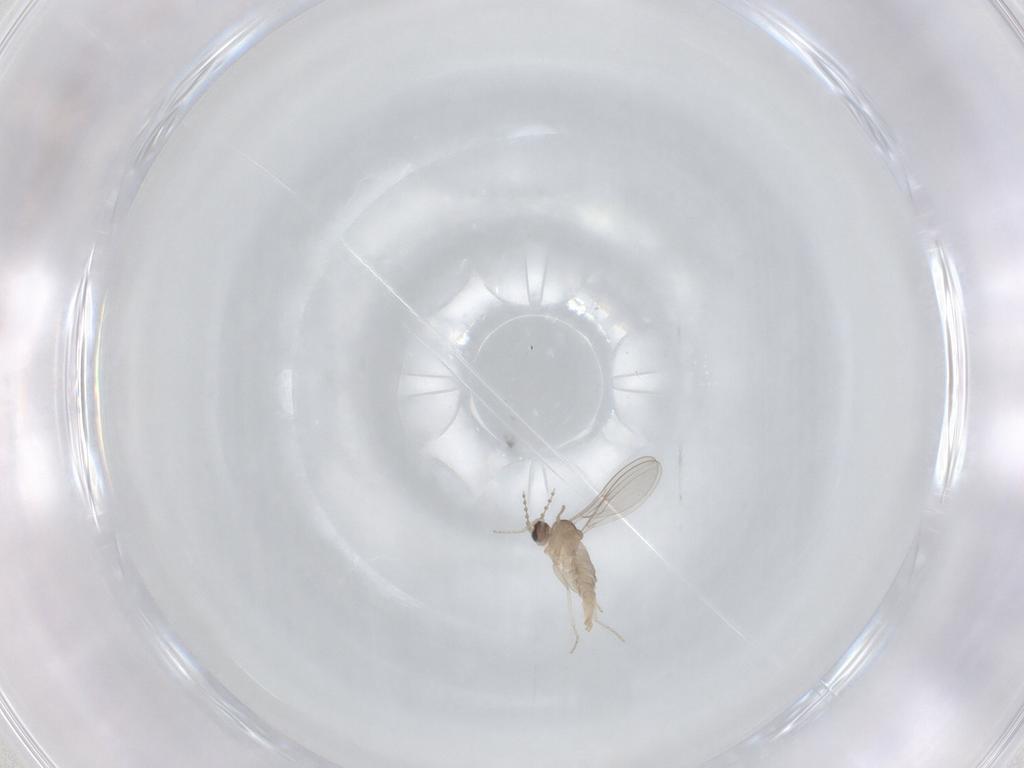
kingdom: Animalia
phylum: Arthropoda
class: Insecta
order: Diptera
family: Cecidomyiidae
